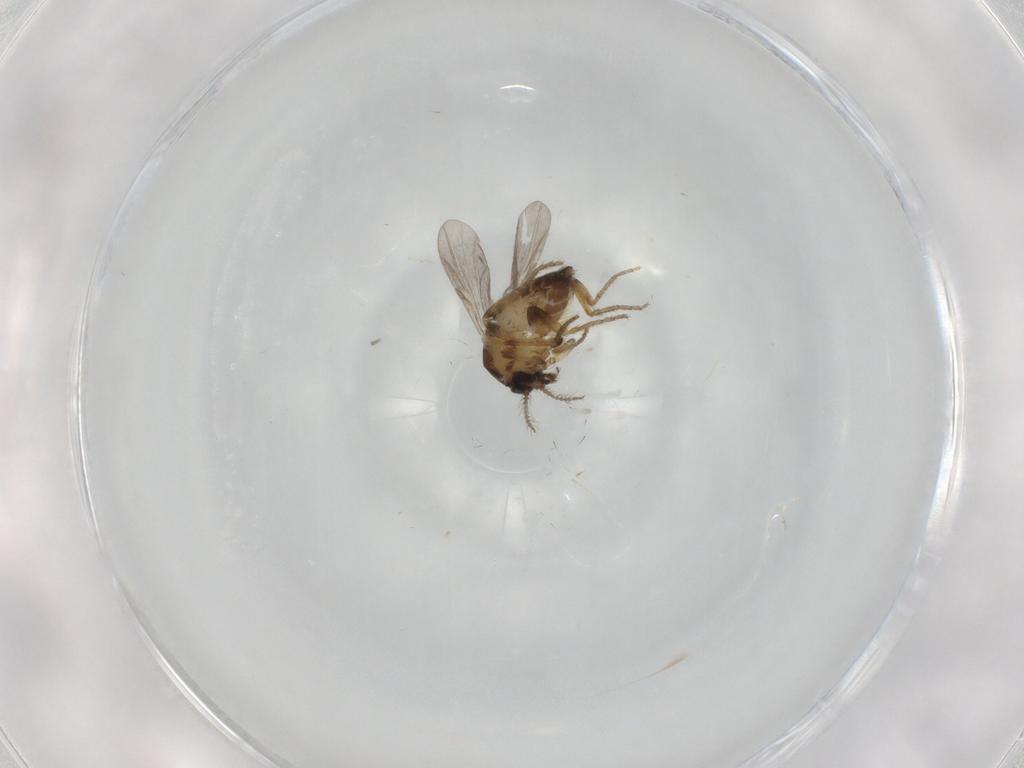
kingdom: Animalia
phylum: Arthropoda
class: Insecta
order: Diptera
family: Ceratopogonidae
